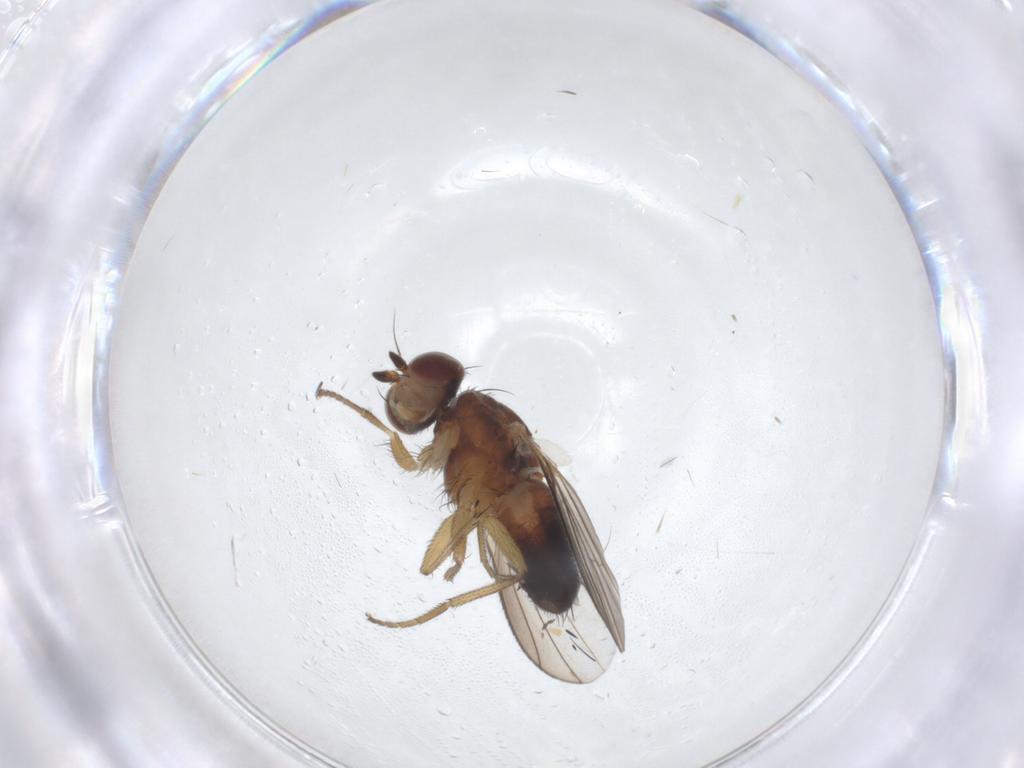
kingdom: Animalia
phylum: Arthropoda
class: Insecta
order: Diptera
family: Heleomyzidae
